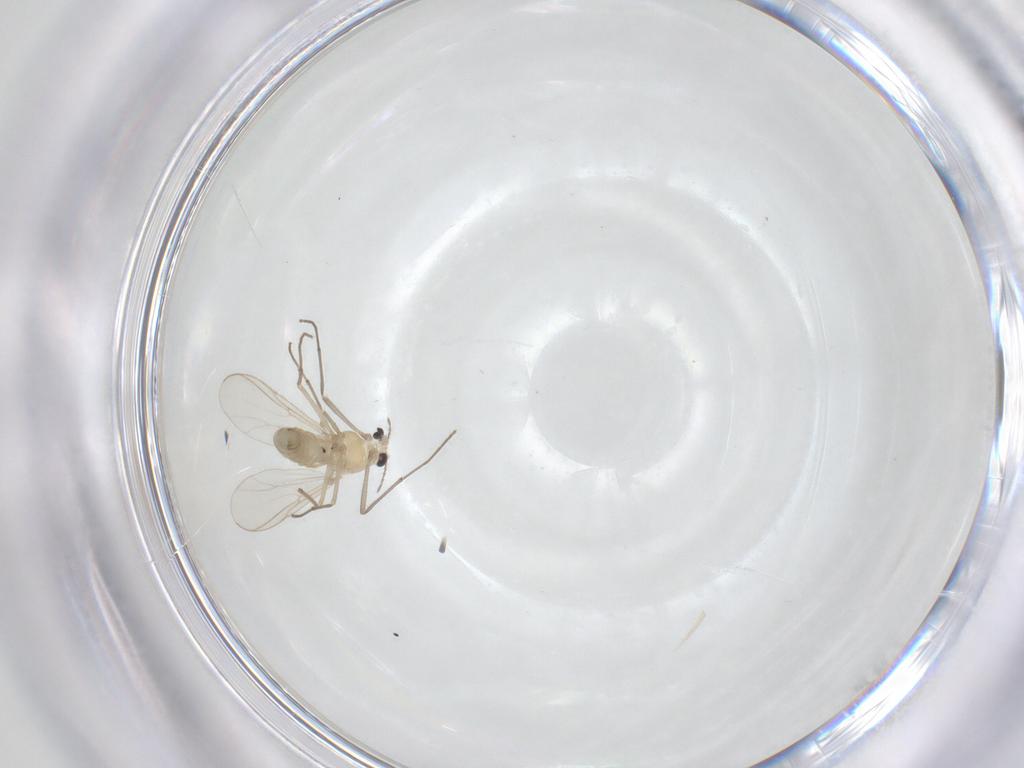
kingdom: Animalia
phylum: Arthropoda
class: Insecta
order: Diptera
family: Chironomidae
